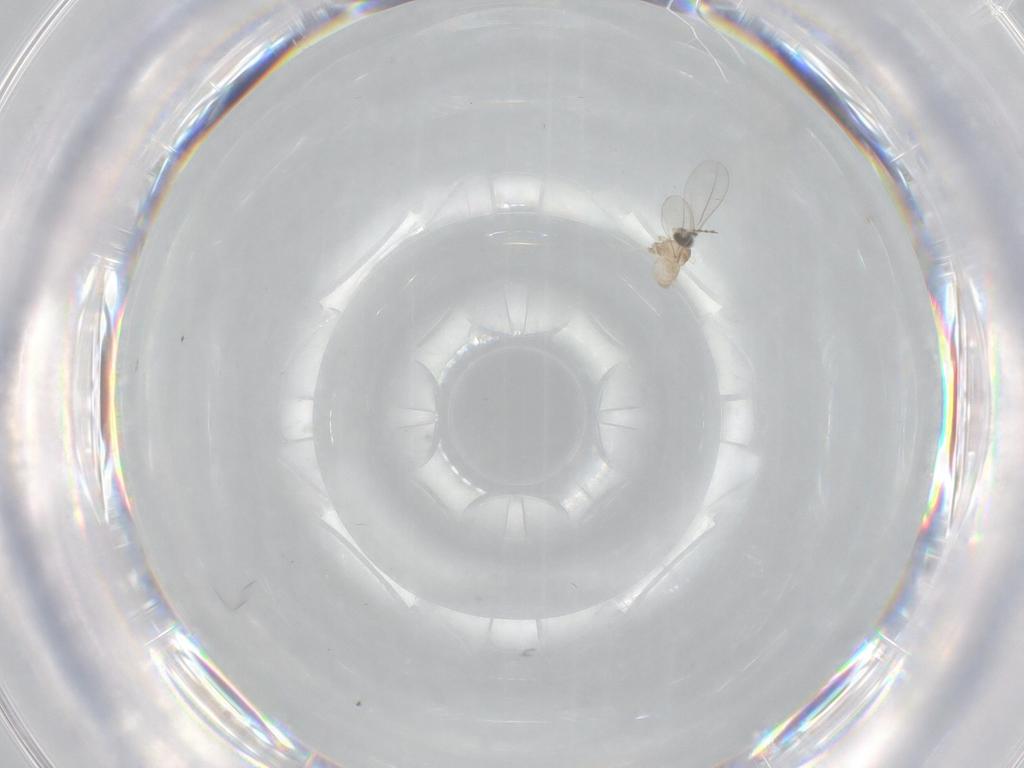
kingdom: Animalia
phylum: Arthropoda
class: Insecta
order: Diptera
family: Cecidomyiidae
